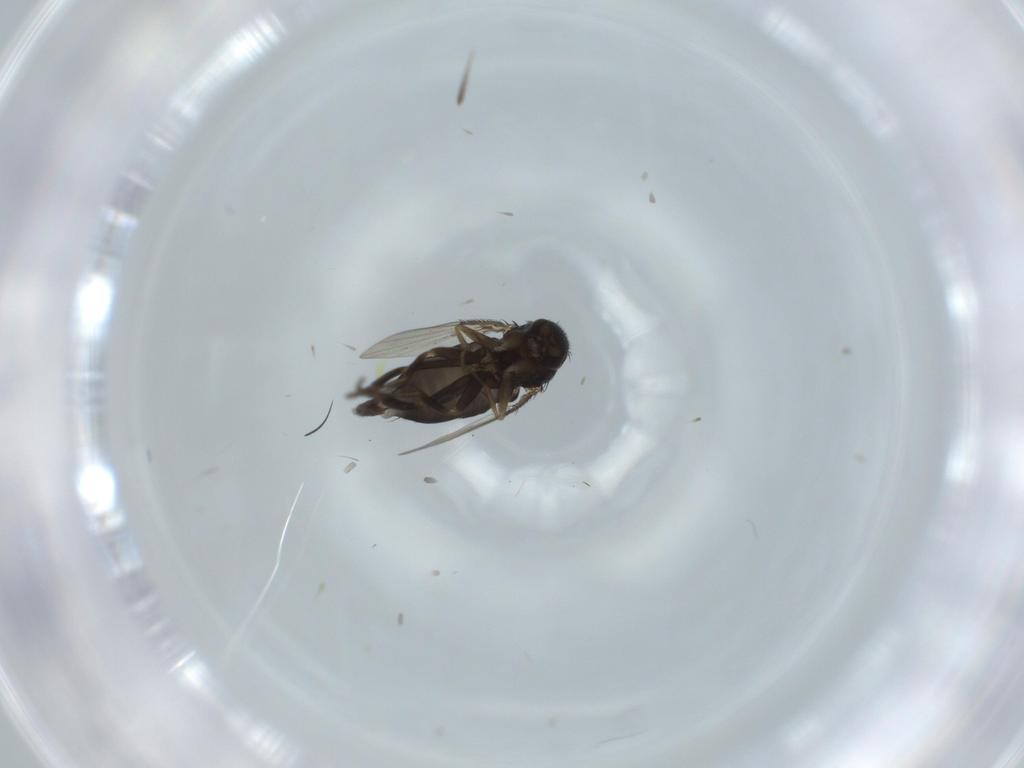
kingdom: Animalia
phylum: Arthropoda
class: Insecta
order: Diptera
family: Phoridae
